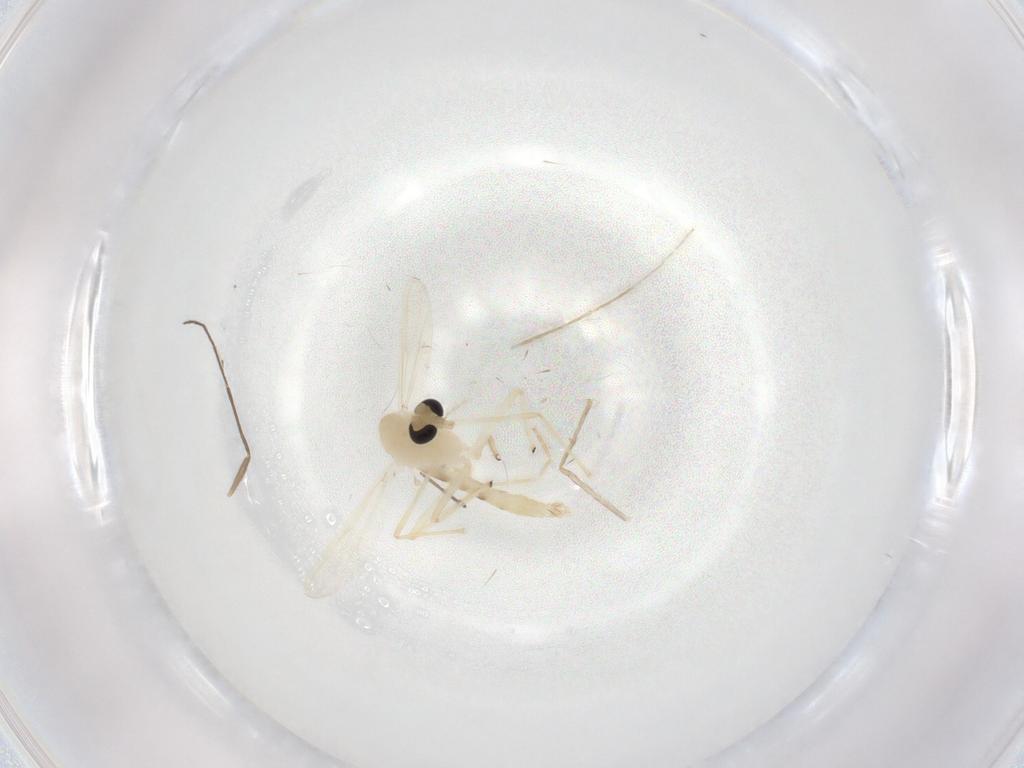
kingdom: Animalia
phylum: Arthropoda
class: Insecta
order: Diptera
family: Chironomidae
